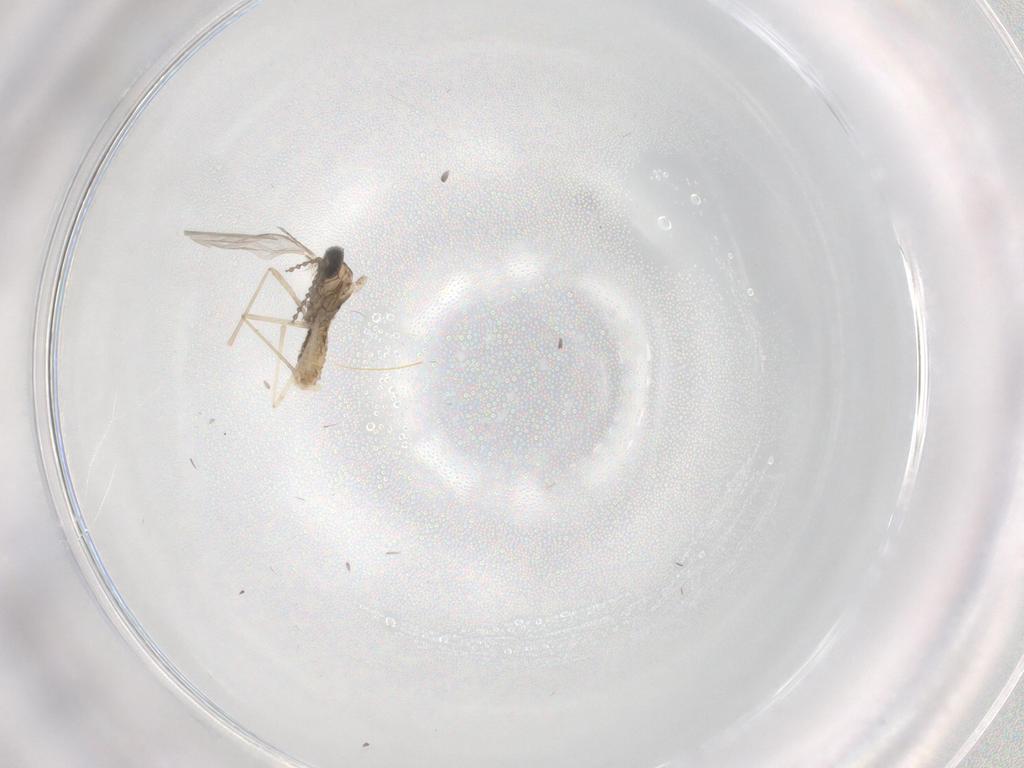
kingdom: Animalia
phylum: Arthropoda
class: Insecta
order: Diptera
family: Cecidomyiidae
